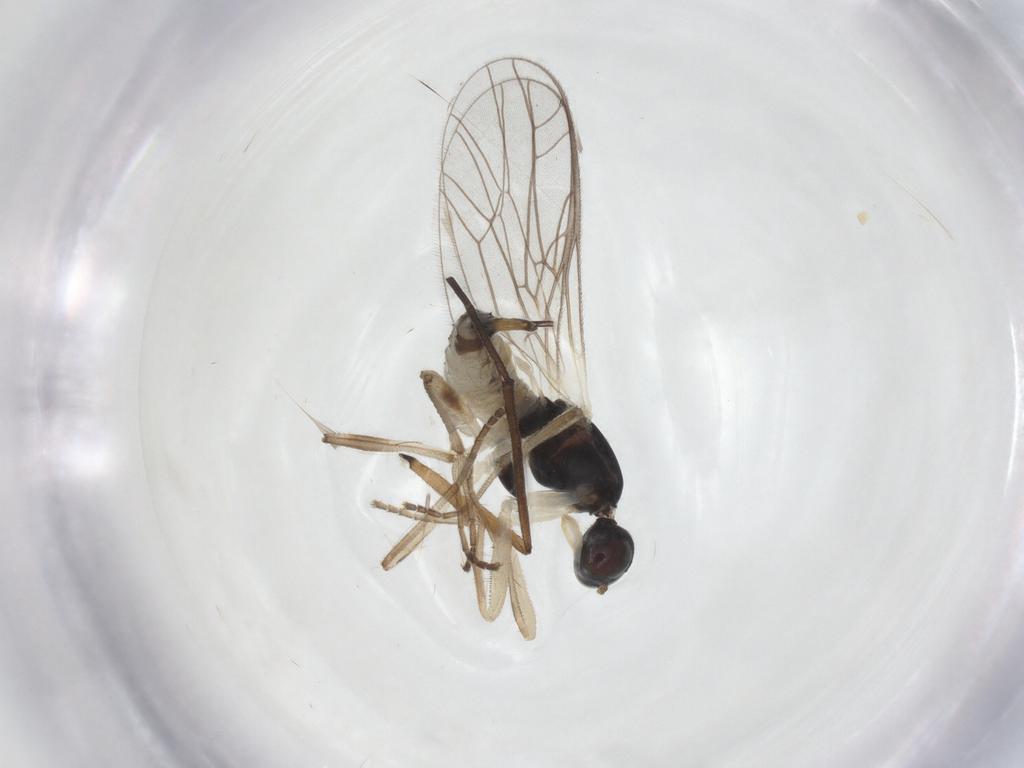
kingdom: Animalia
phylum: Arthropoda
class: Insecta
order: Diptera
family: Empididae
